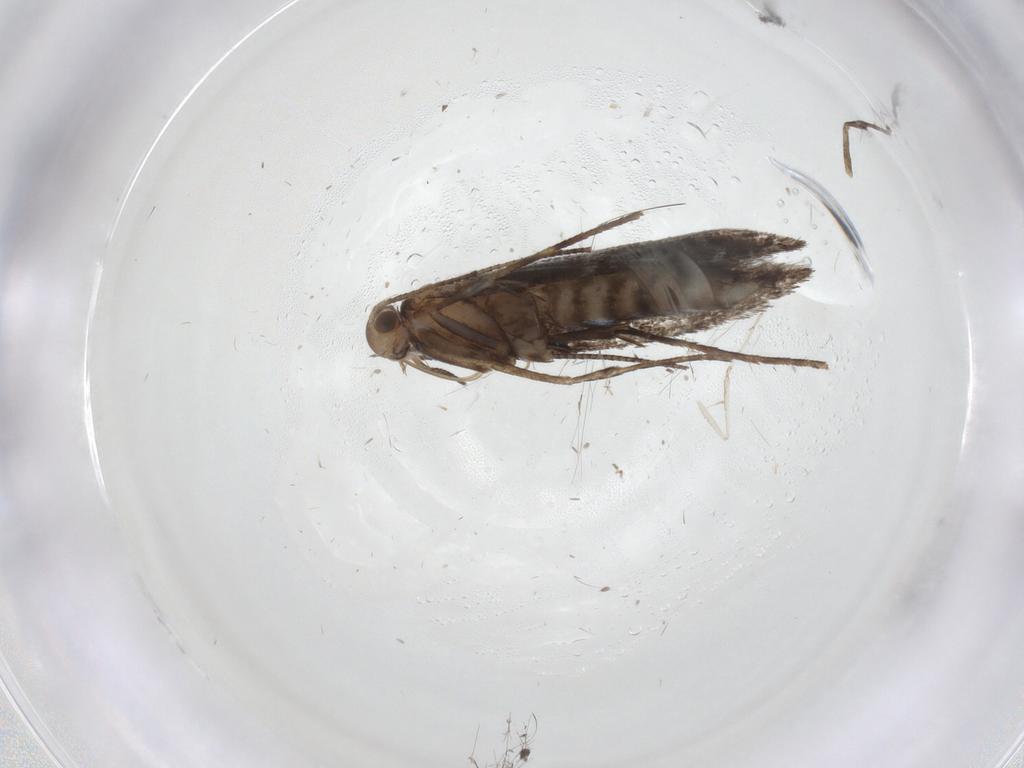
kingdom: Animalia
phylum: Arthropoda
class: Insecta
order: Lepidoptera
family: Gracillariidae
